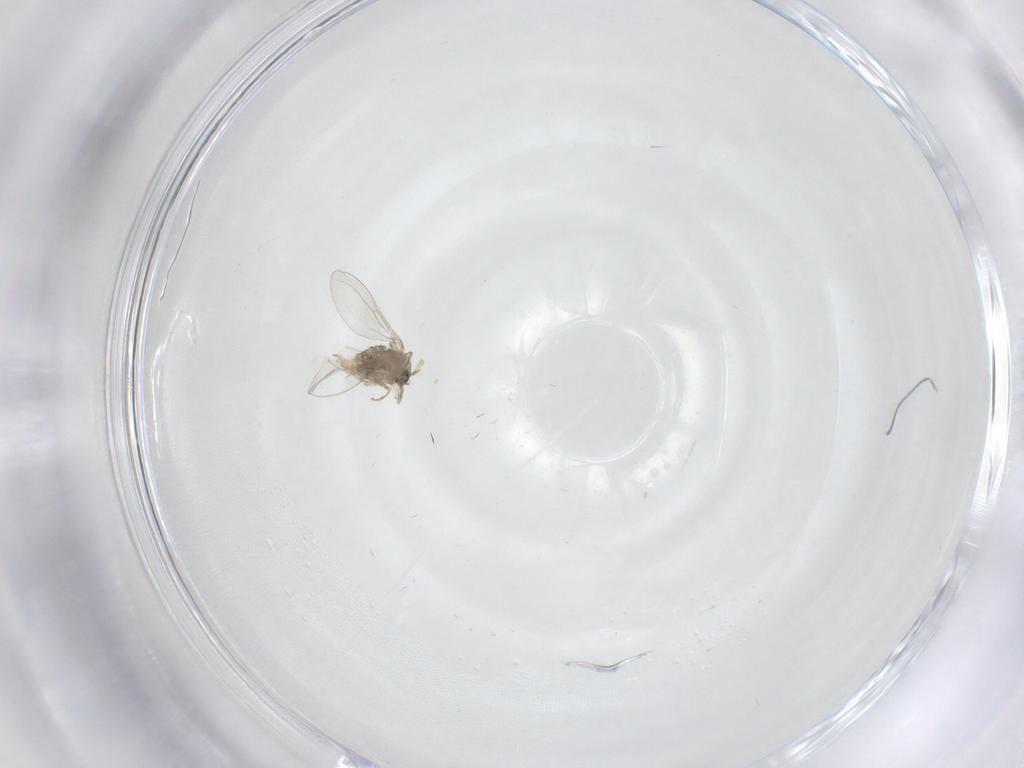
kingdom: Animalia
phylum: Arthropoda
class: Insecta
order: Diptera
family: Cecidomyiidae
